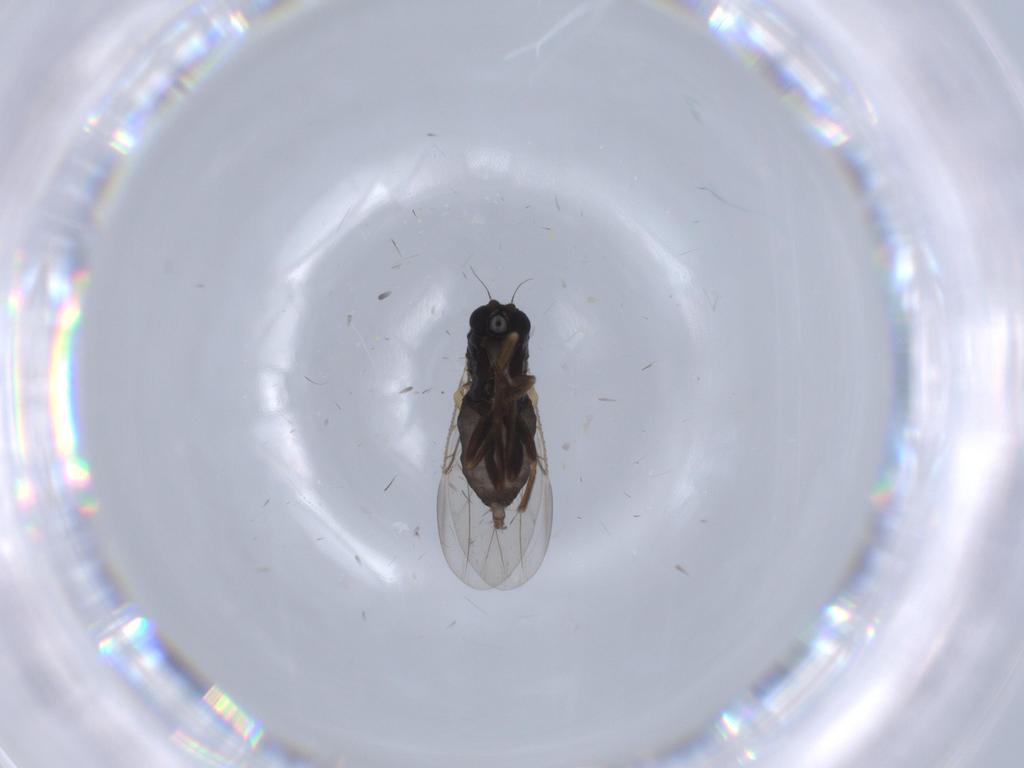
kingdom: Animalia
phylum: Arthropoda
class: Insecta
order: Diptera
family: Phoridae
